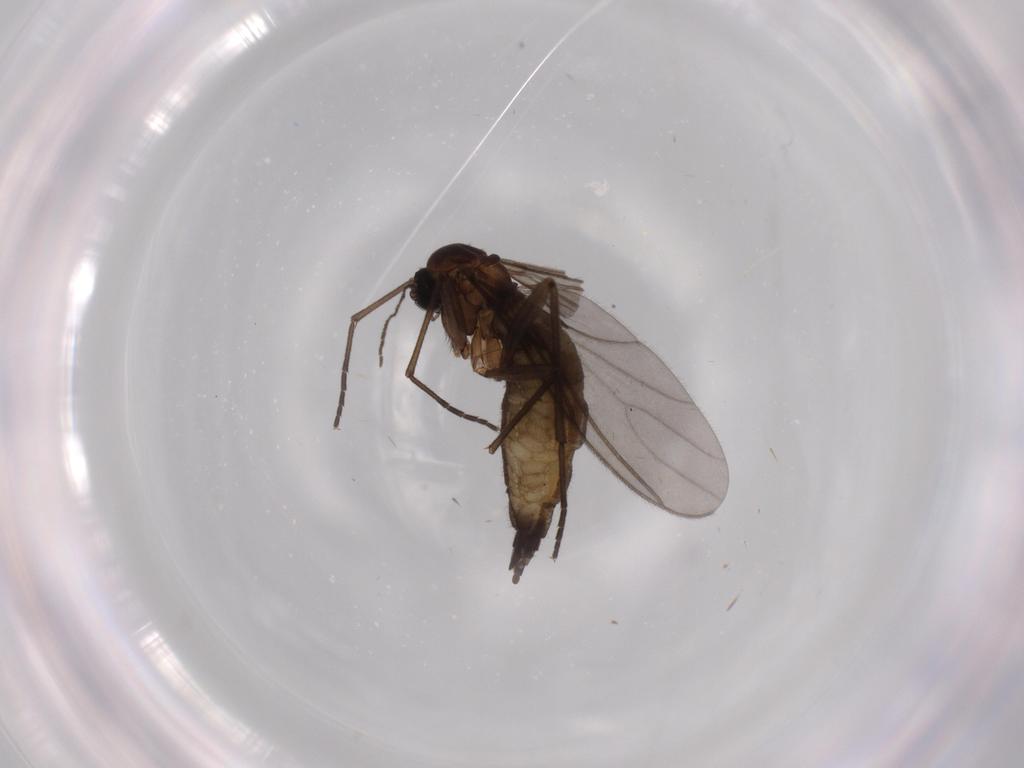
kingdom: Animalia
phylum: Arthropoda
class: Insecta
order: Diptera
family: Sciaridae
